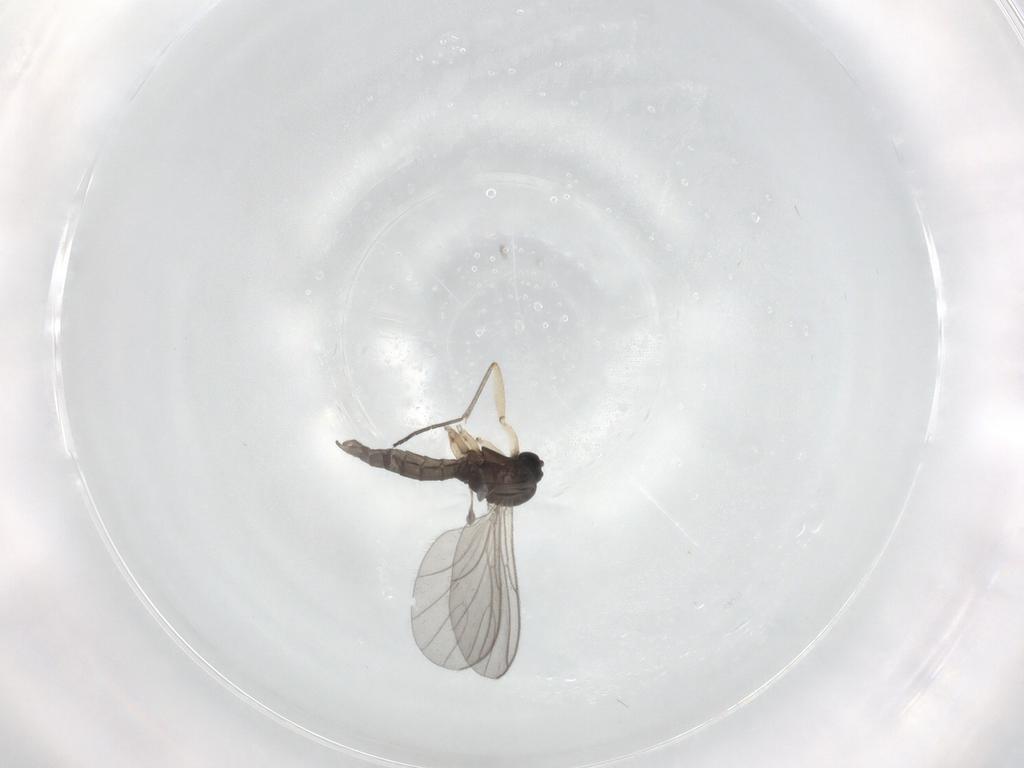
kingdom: Animalia
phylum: Arthropoda
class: Insecta
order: Diptera
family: Sciaridae
